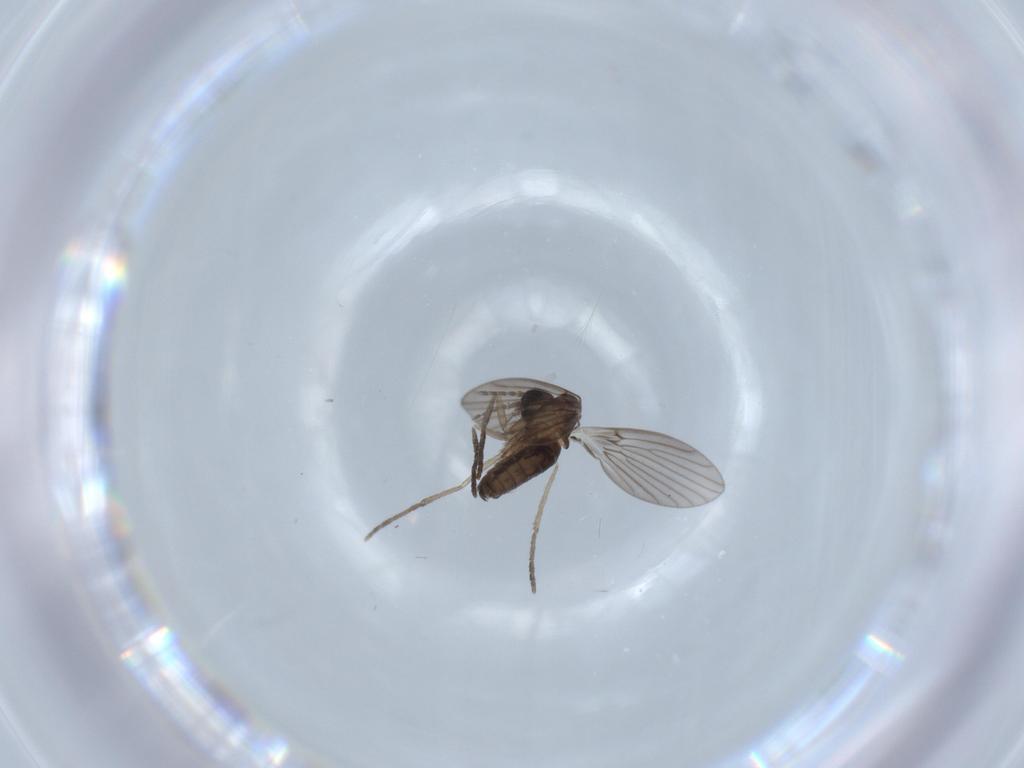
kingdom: Animalia
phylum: Arthropoda
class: Insecta
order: Diptera
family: Psychodidae
